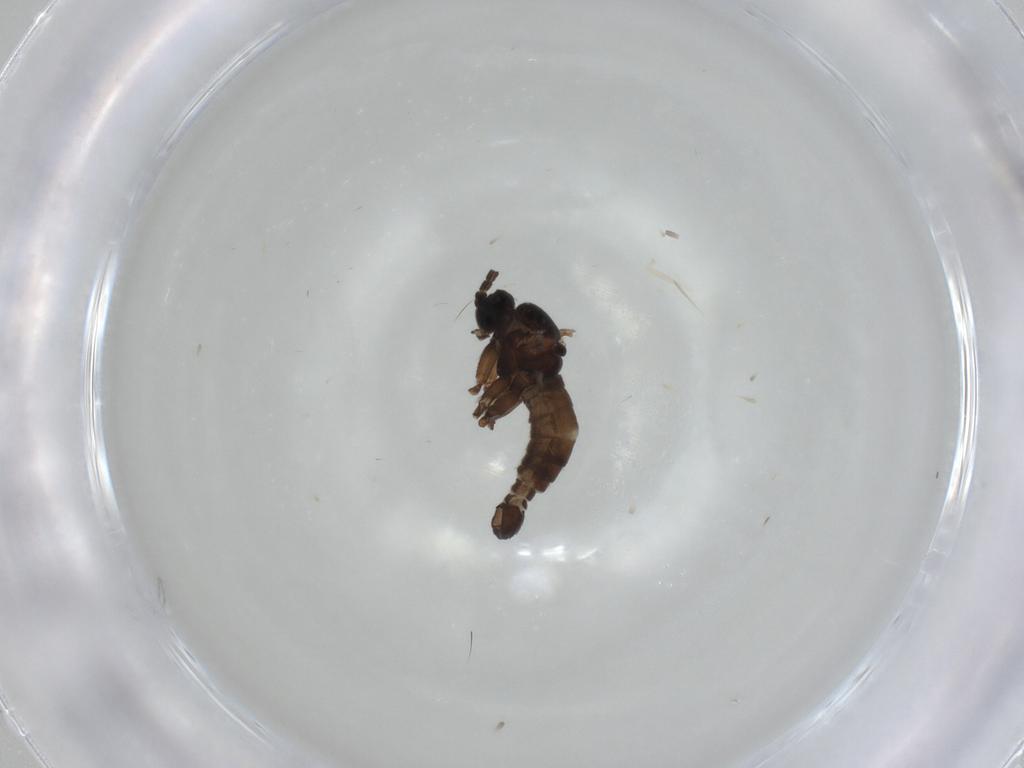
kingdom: Animalia
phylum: Arthropoda
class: Insecta
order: Diptera
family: Sciaridae
